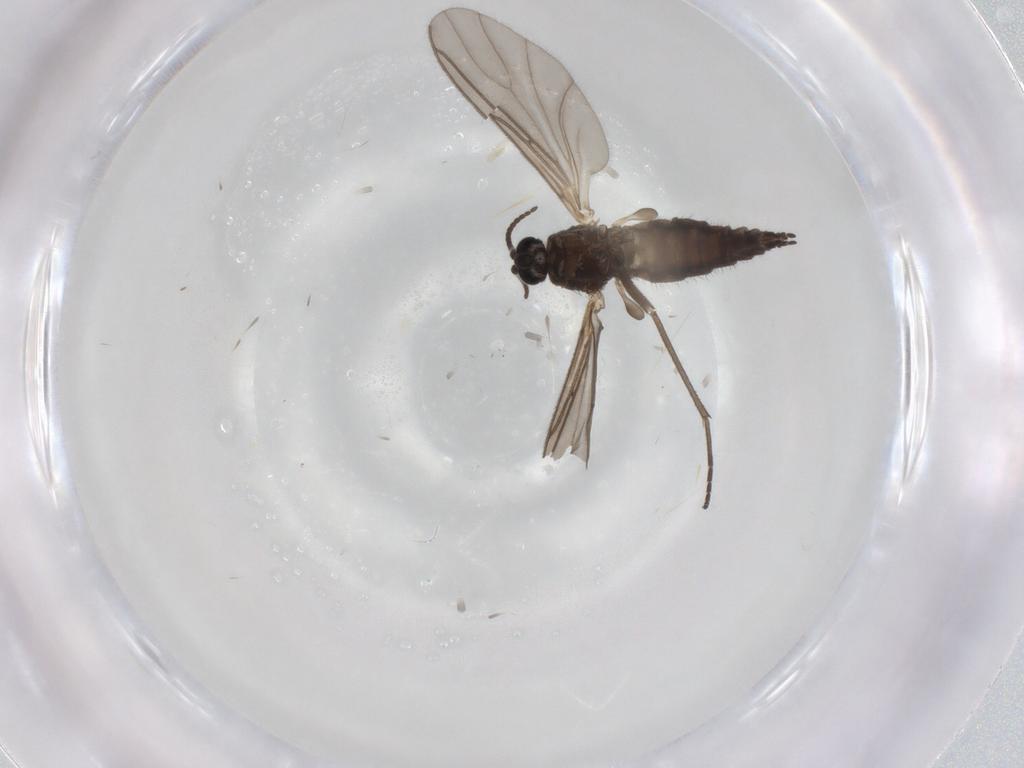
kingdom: Animalia
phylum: Arthropoda
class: Insecta
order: Diptera
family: Sciaridae
